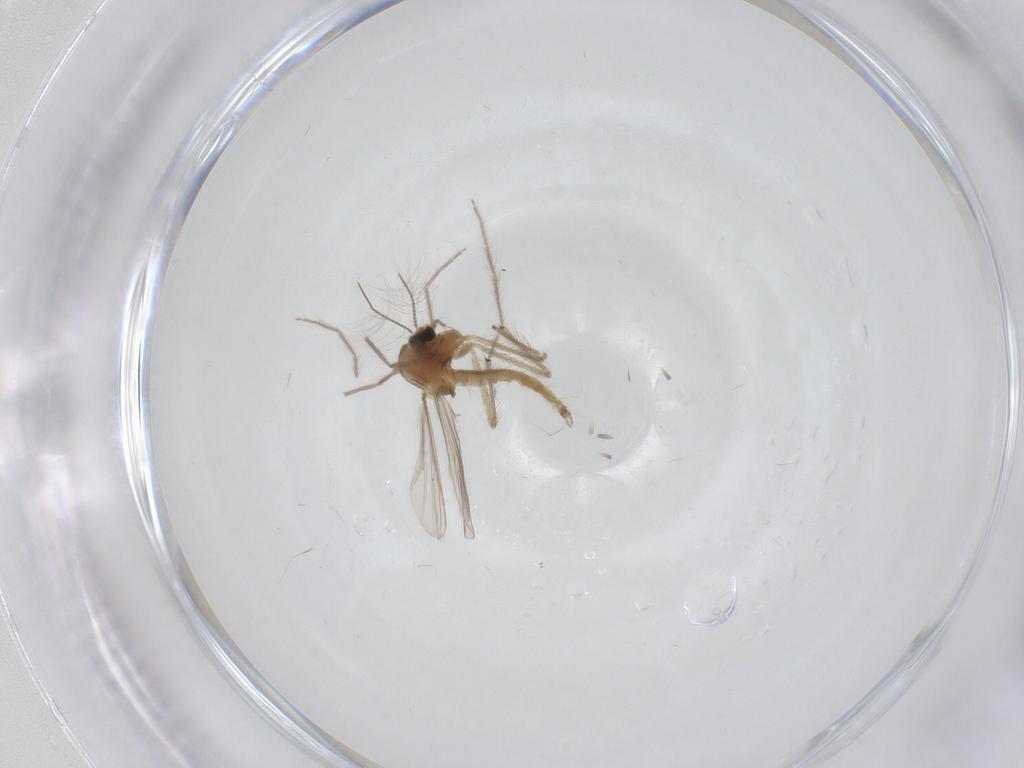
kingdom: Animalia
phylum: Arthropoda
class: Insecta
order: Diptera
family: Chironomidae
